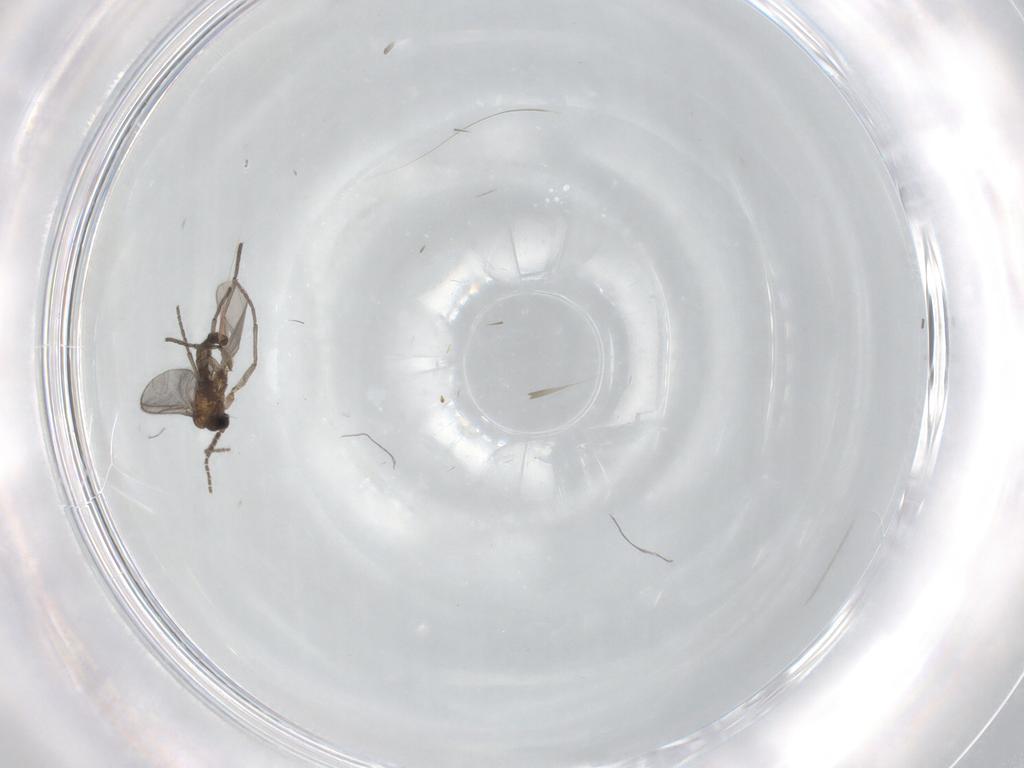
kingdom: Animalia
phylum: Arthropoda
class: Insecta
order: Diptera
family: Sciaridae
